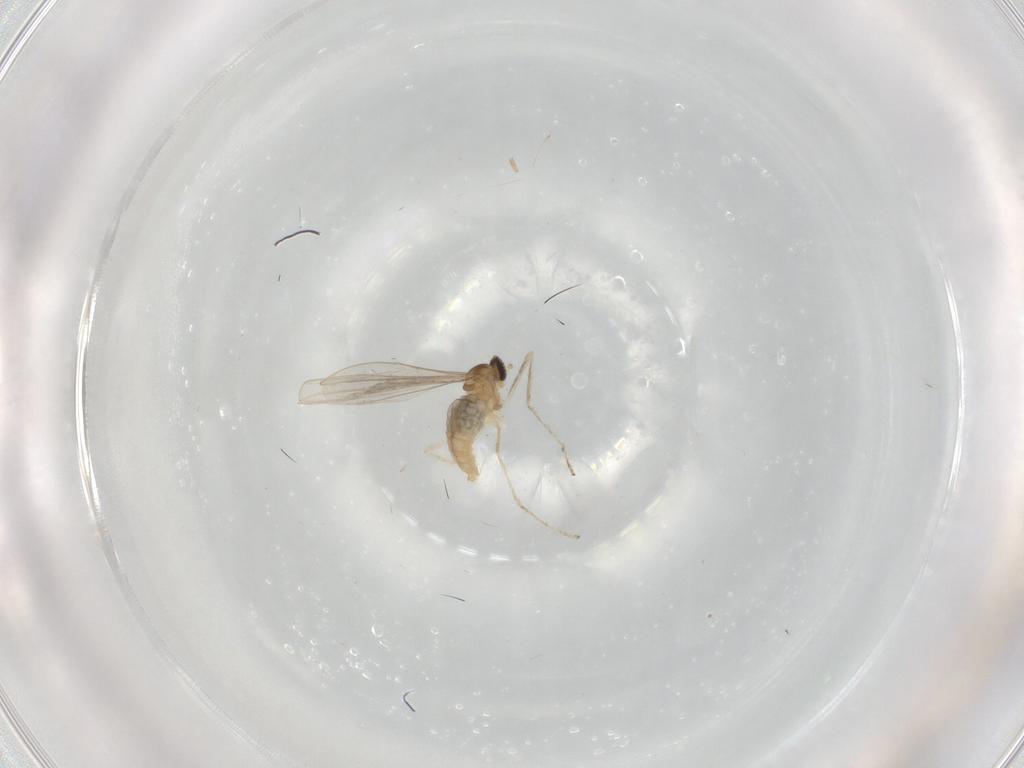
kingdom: Animalia
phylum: Arthropoda
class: Insecta
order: Diptera
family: Cecidomyiidae
